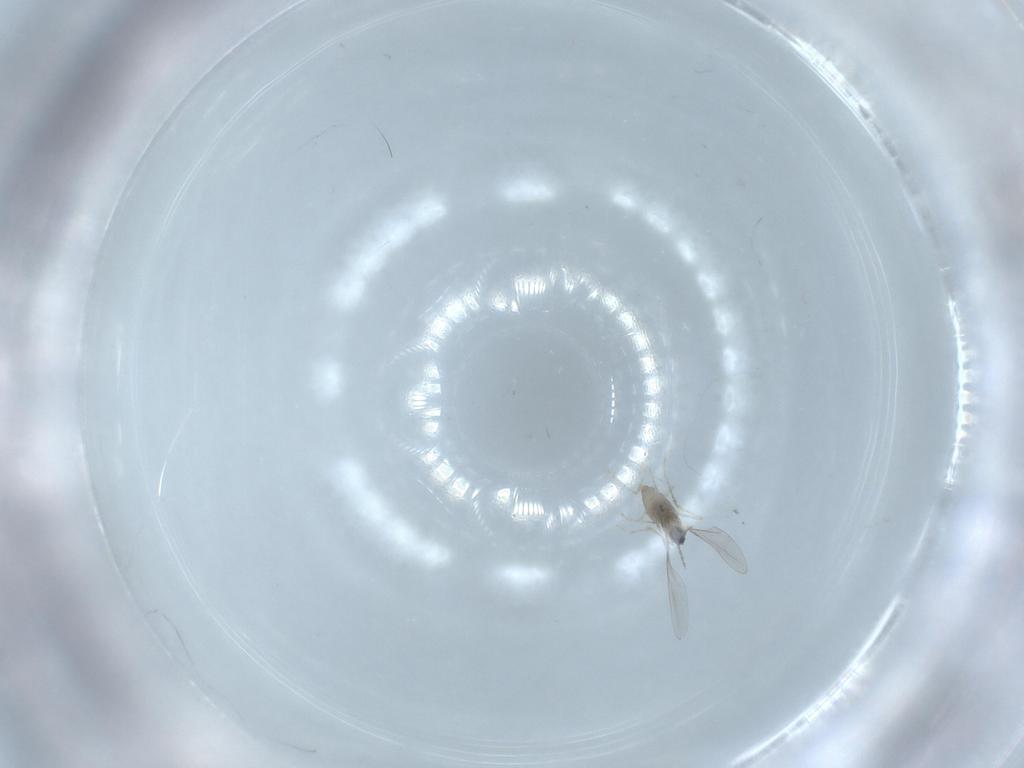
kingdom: Animalia
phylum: Arthropoda
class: Insecta
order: Diptera
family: Cecidomyiidae
